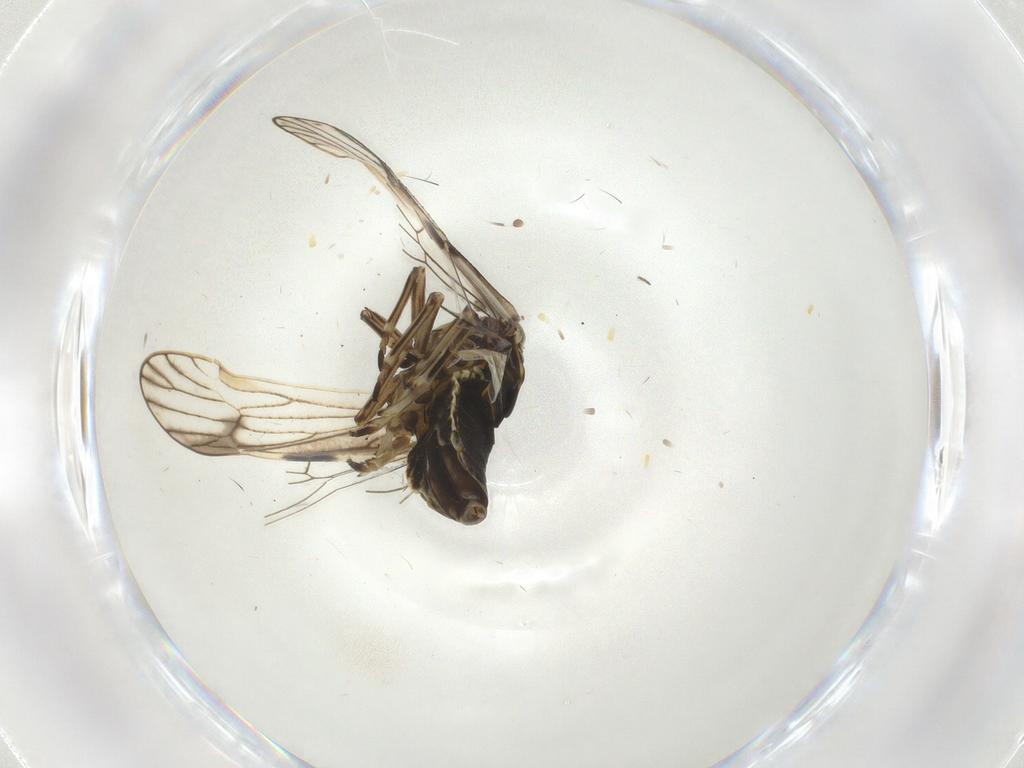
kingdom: Animalia
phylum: Arthropoda
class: Insecta
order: Hemiptera
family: Delphacidae
